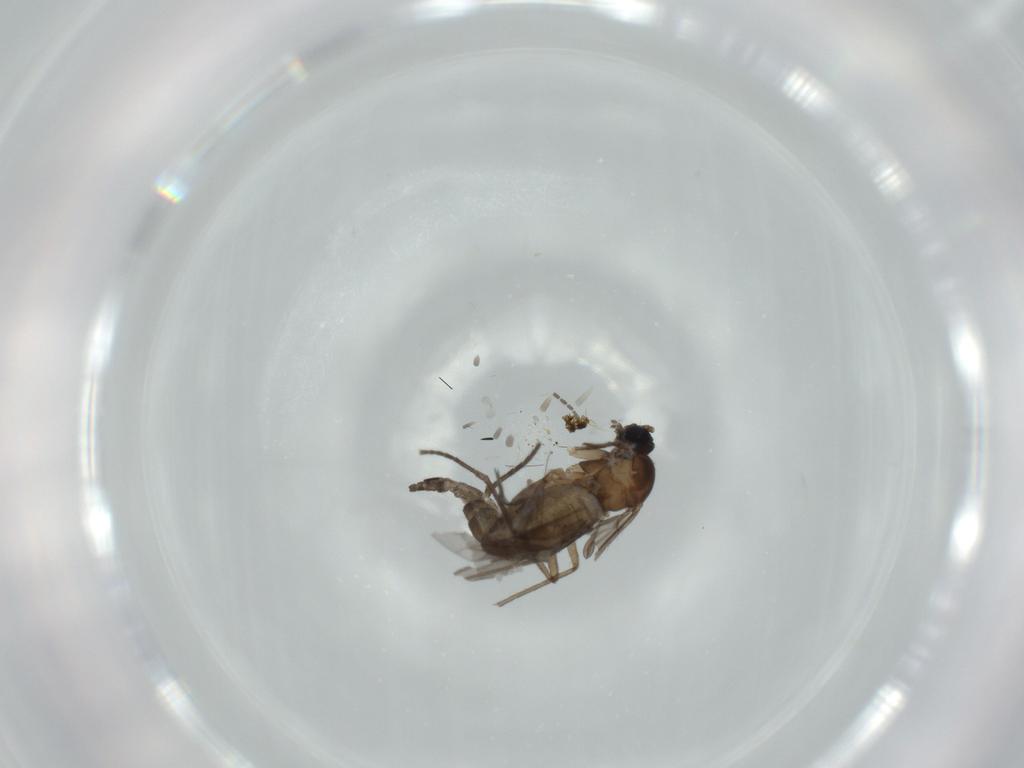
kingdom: Animalia
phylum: Arthropoda
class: Insecta
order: Diptera
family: Sciaridae
